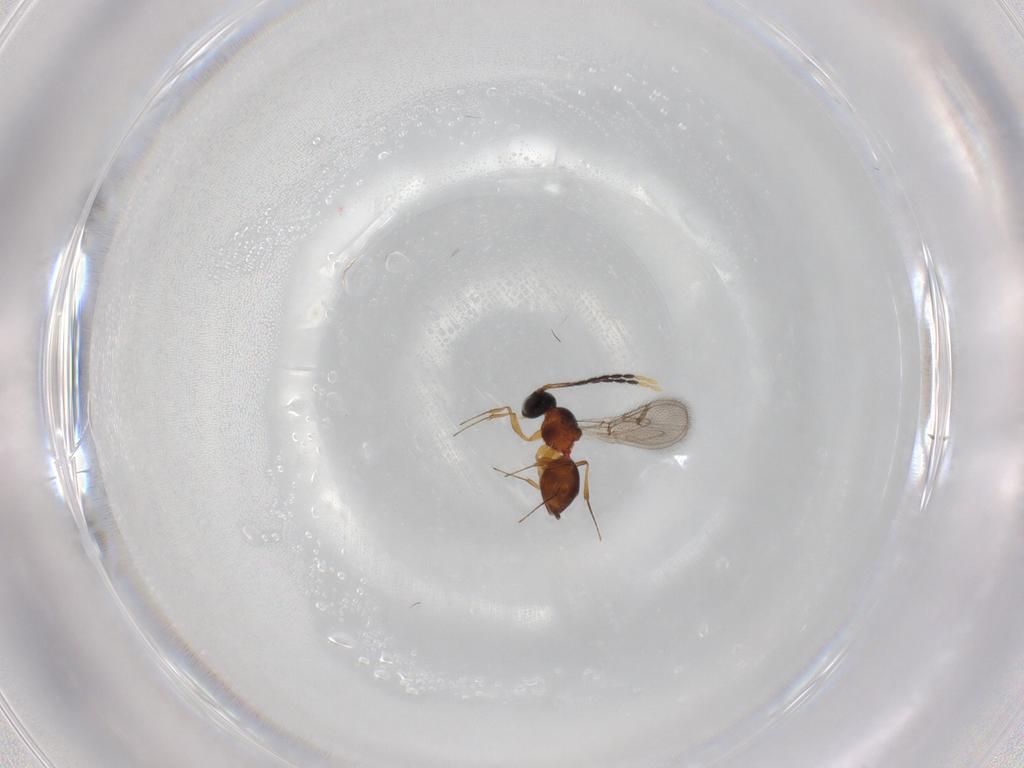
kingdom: Animalia
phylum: Arthropoda
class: Insecta
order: Hymenoptera
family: Figitidae
